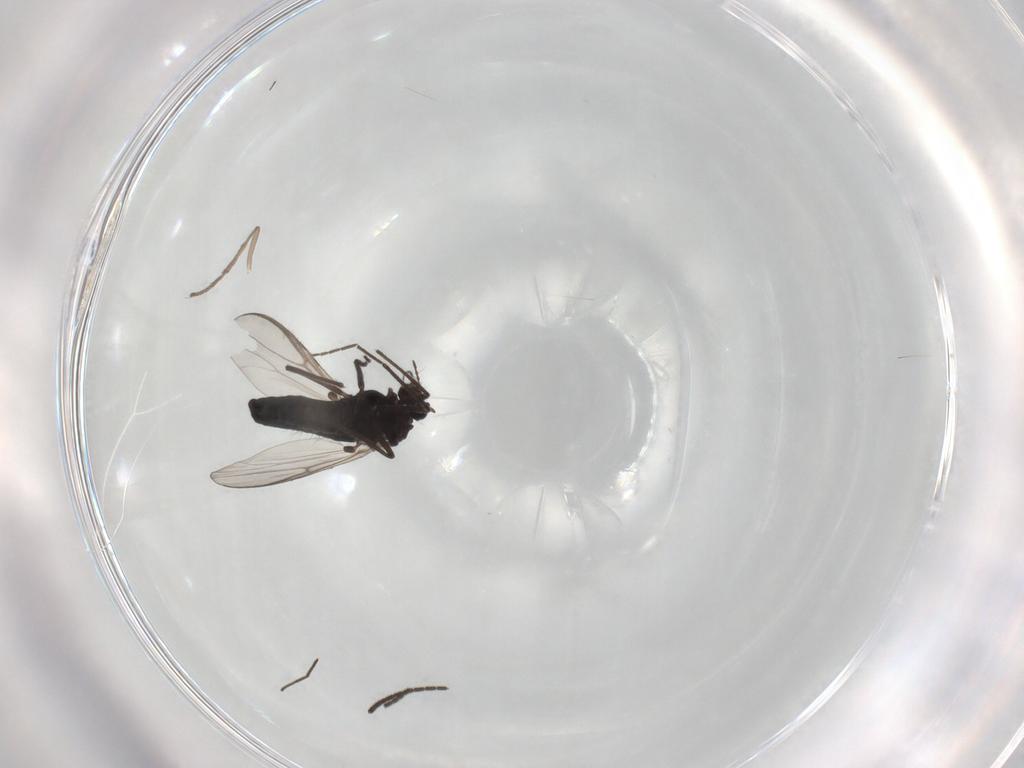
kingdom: Animalia
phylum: Arthropoda
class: Insecta
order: Diptera
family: Chironomidae
